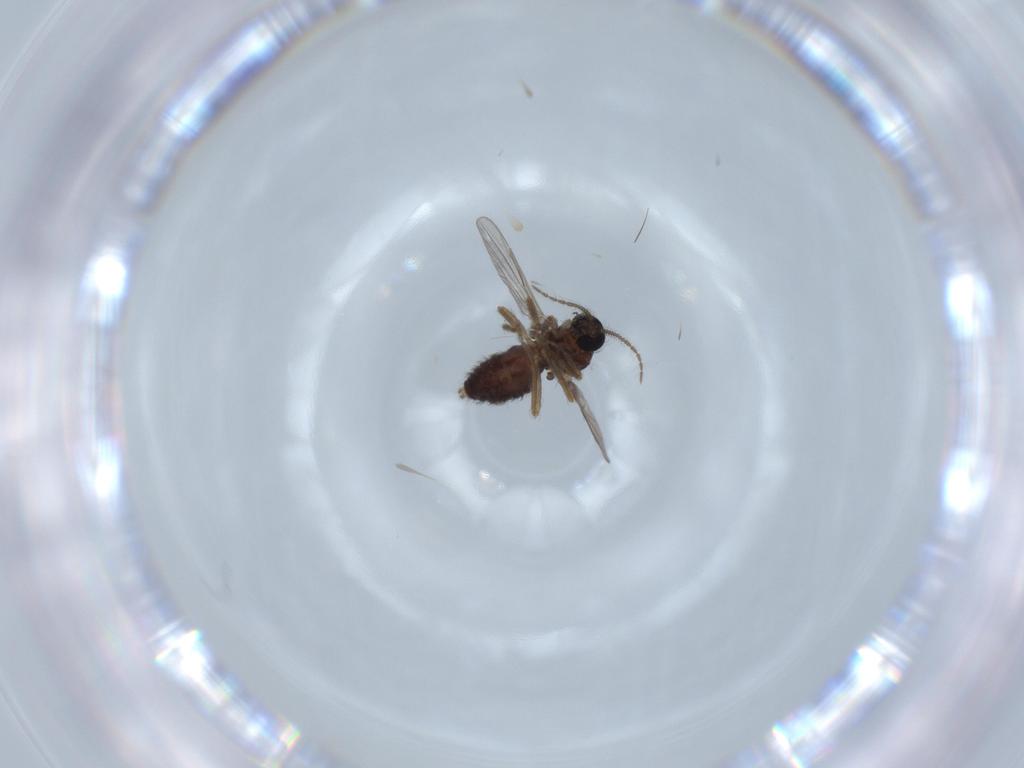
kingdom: Animalia
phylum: Arthropoda
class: Insecta
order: Diptera
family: Ceratopogonidae
